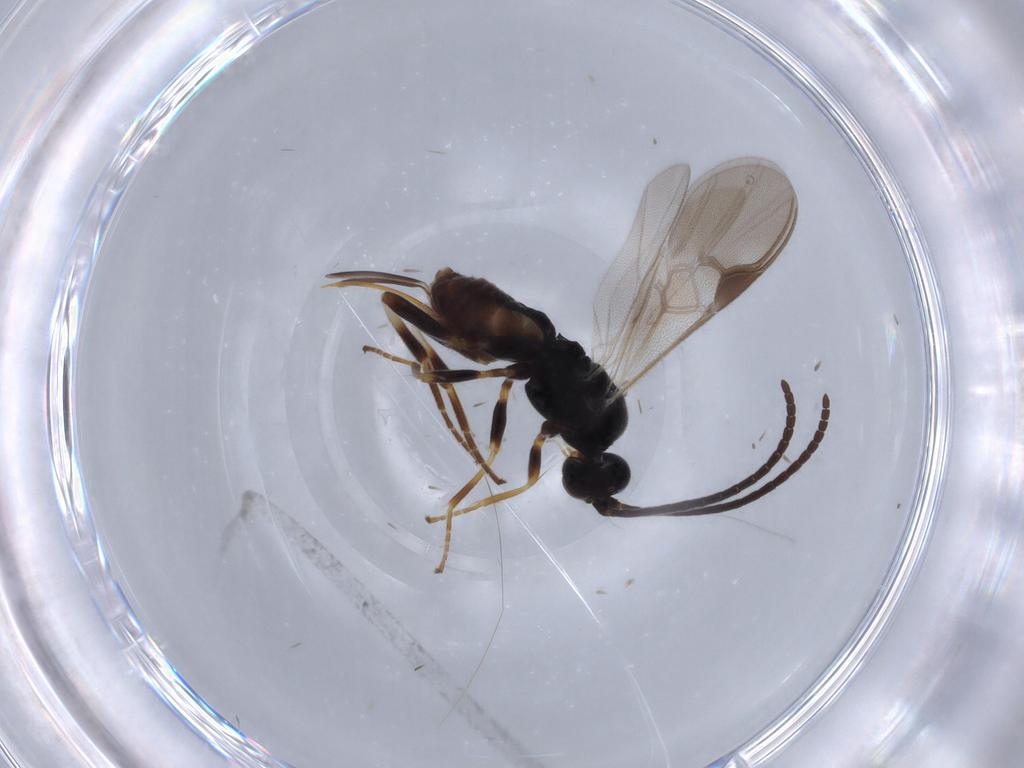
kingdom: Animalia
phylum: Arthropoda
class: Insecta
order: Hymenoptera
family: Braconidae
